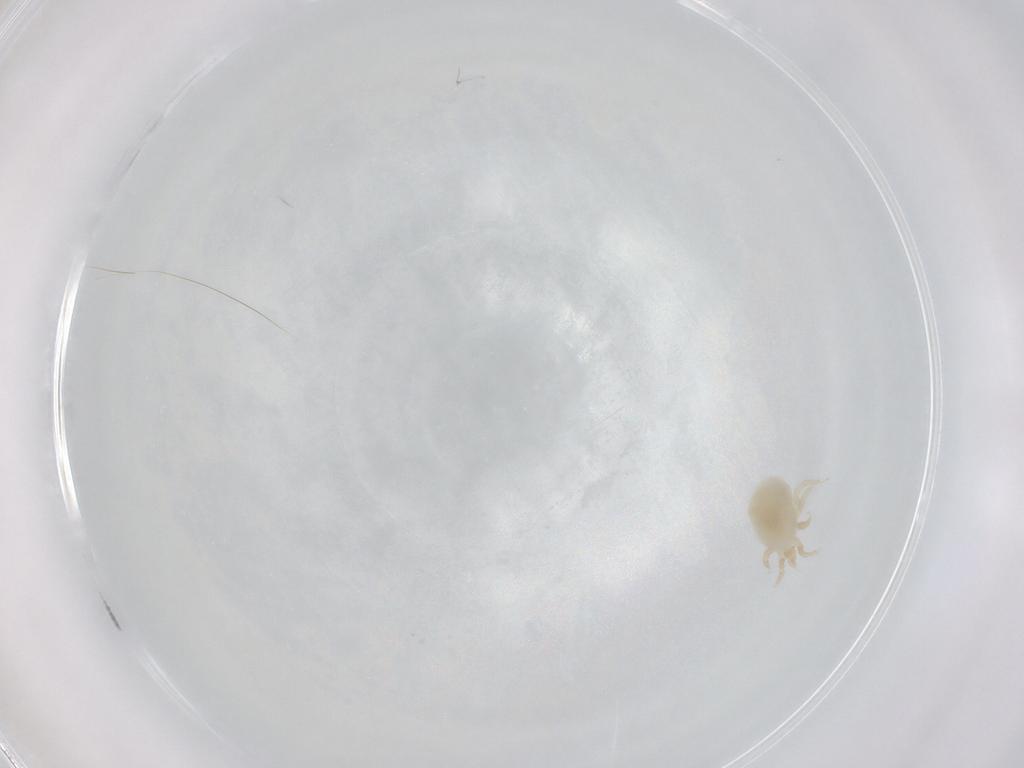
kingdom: Animalia
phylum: Arthropoda
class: Arachnida
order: Mesostigmata
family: Melicharidae
